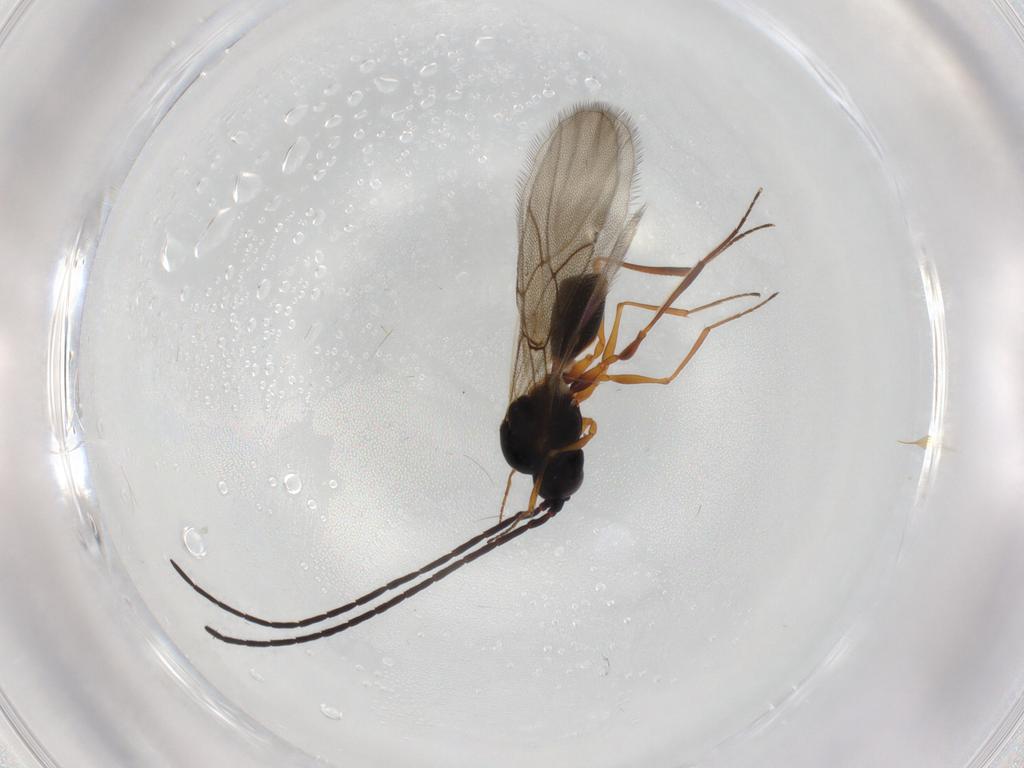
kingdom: Animalia
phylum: Arthropoda
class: Insecta
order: Hymenoptera
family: Figitidae
